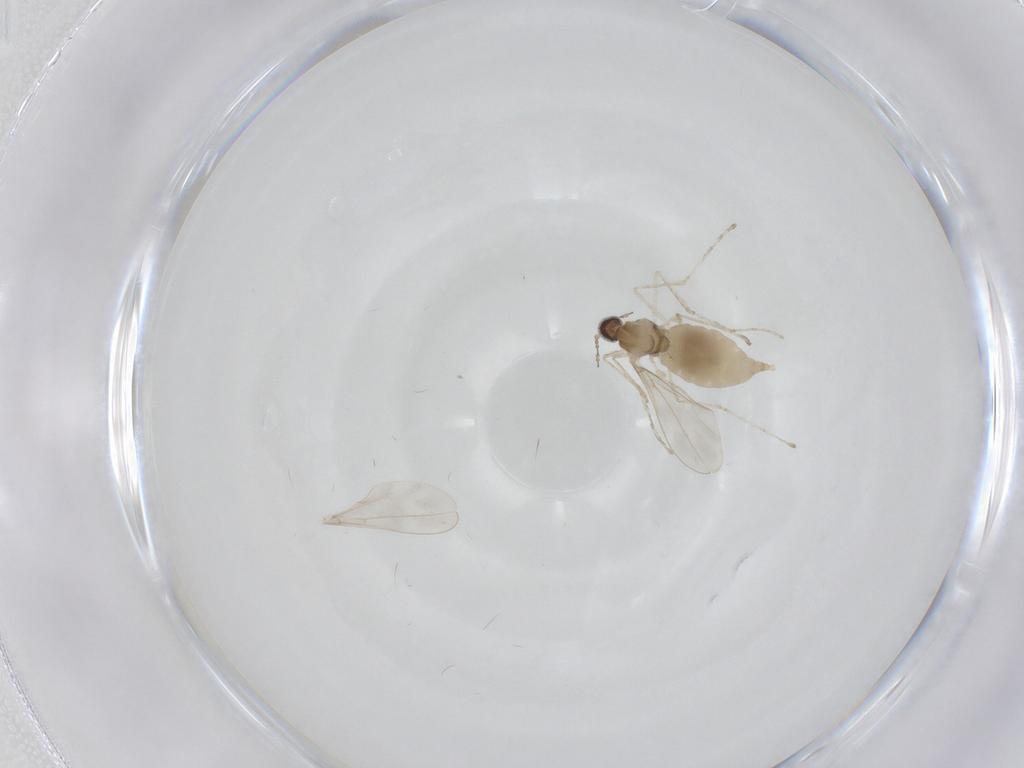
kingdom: Animalia
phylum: Arthropoda
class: Insecta
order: Diptera
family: Cecidomyiidae
